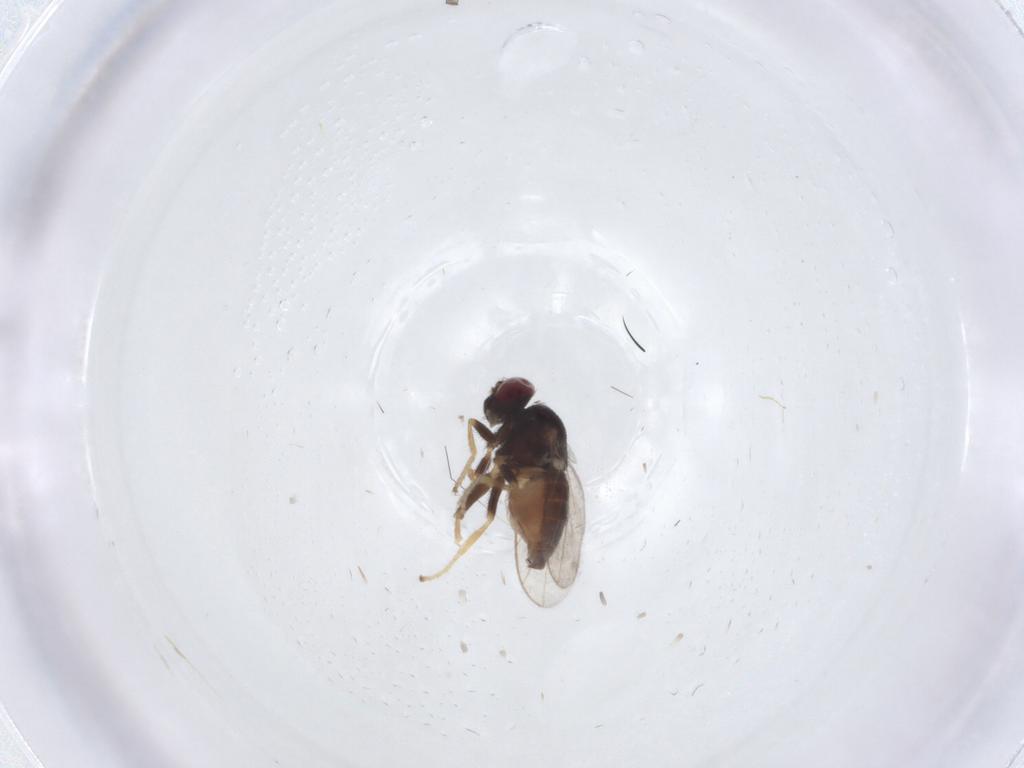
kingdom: Animalia
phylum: Arthropoda
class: Insecta
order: Diptera
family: Chloropidae
